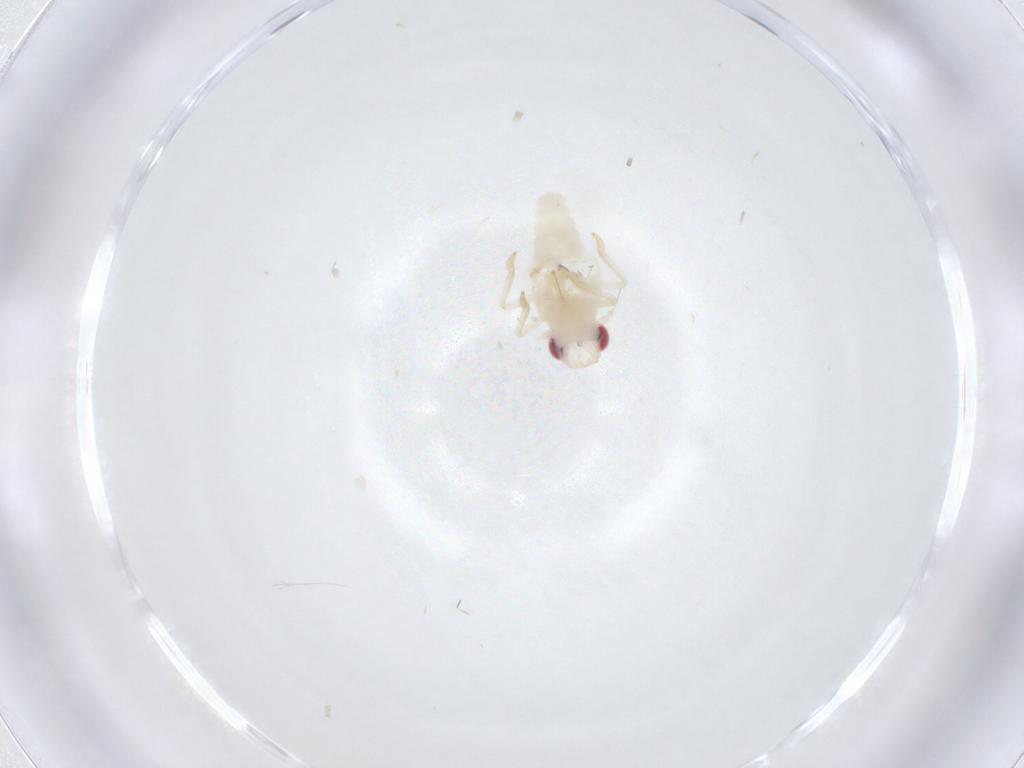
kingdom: Animalia
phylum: Arthropoda
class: Insecta
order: Hemiptera
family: Fulgoroidea_incertae_sedis
